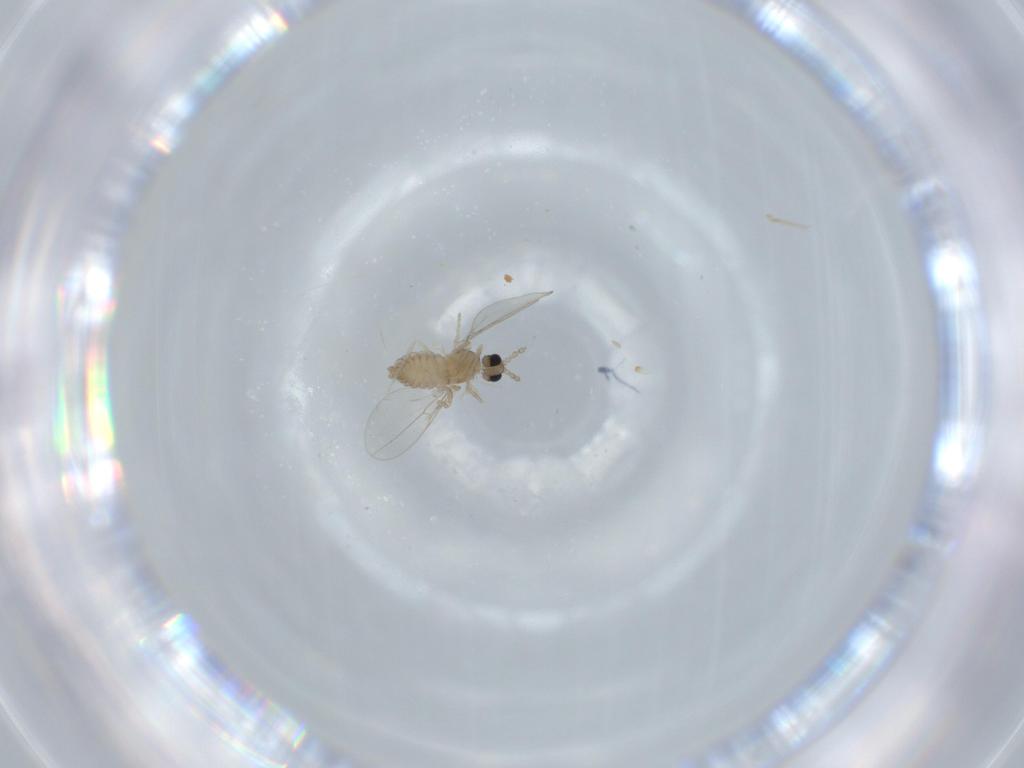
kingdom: Animalia
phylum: Arthropoda
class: Insecta
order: Diptera
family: Cecidomyiidae
